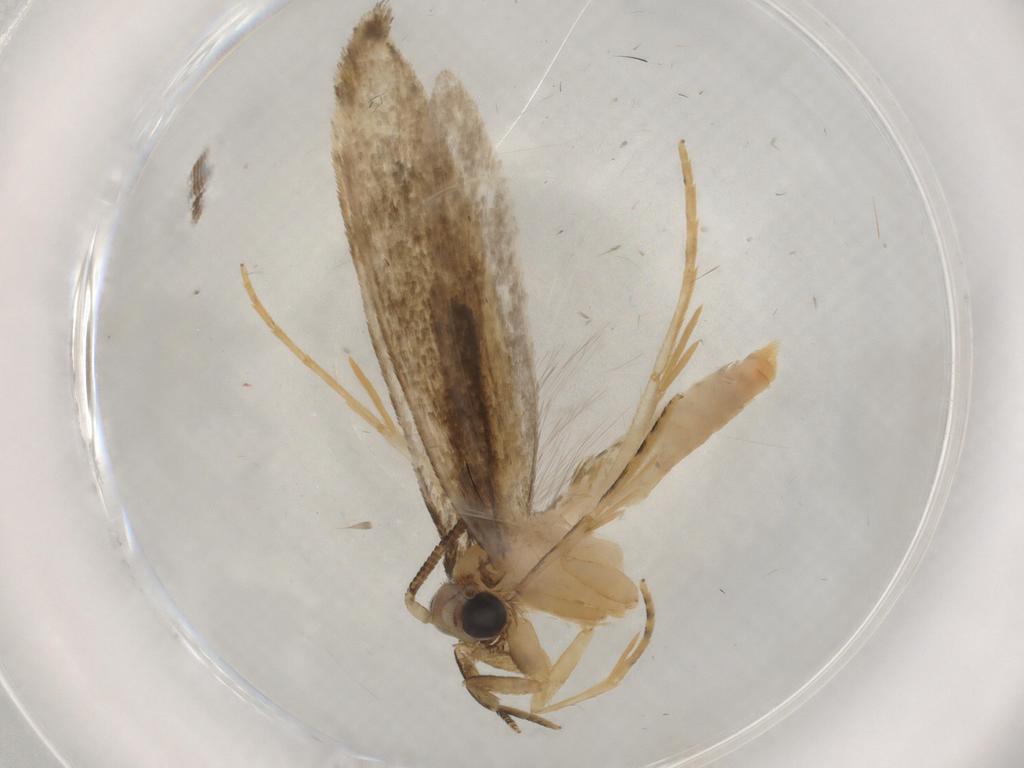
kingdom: Animalia
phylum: Arthropoda
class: Insecta
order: Lepidoptera
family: Tineidae
